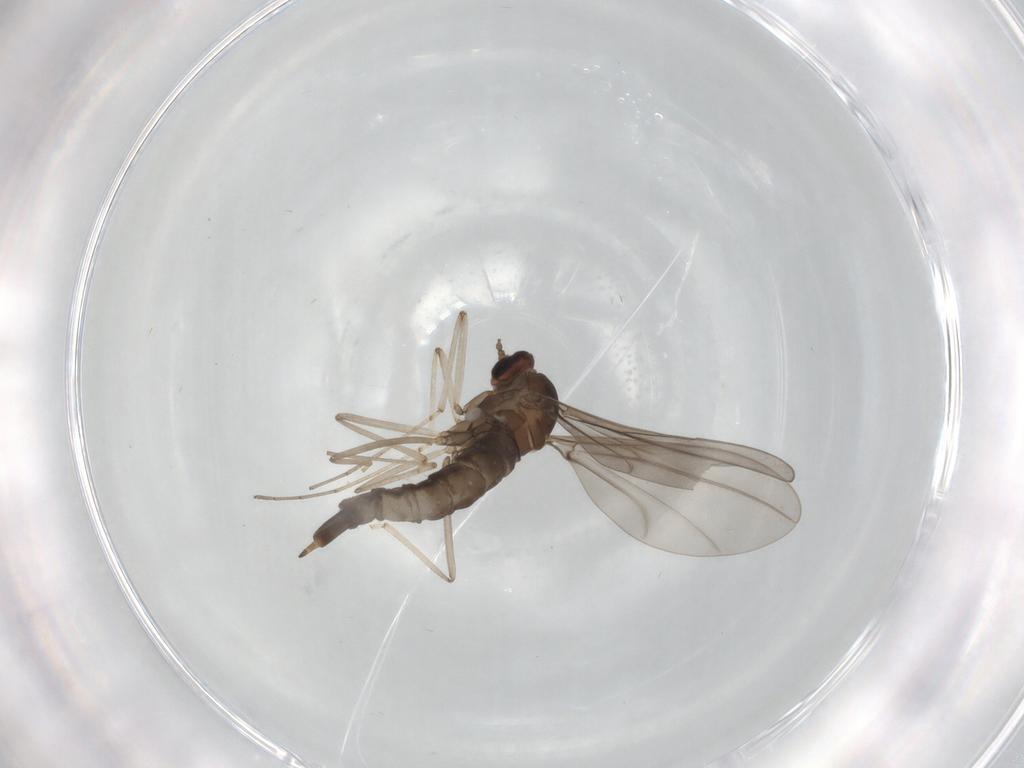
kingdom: Animalia
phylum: Arthropoda
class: Insecta
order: Diptera
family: Cecidomyiidae
